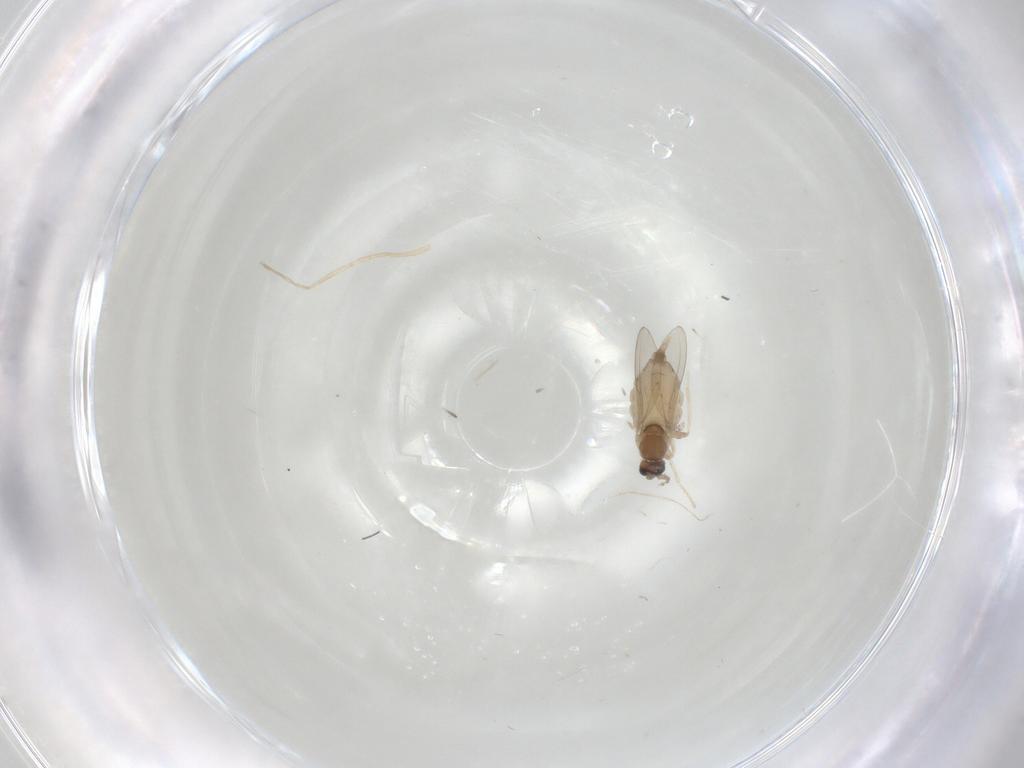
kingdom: Animalia
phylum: Arthropoda
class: Insecta
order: Diptera
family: Cecidomyiidae
